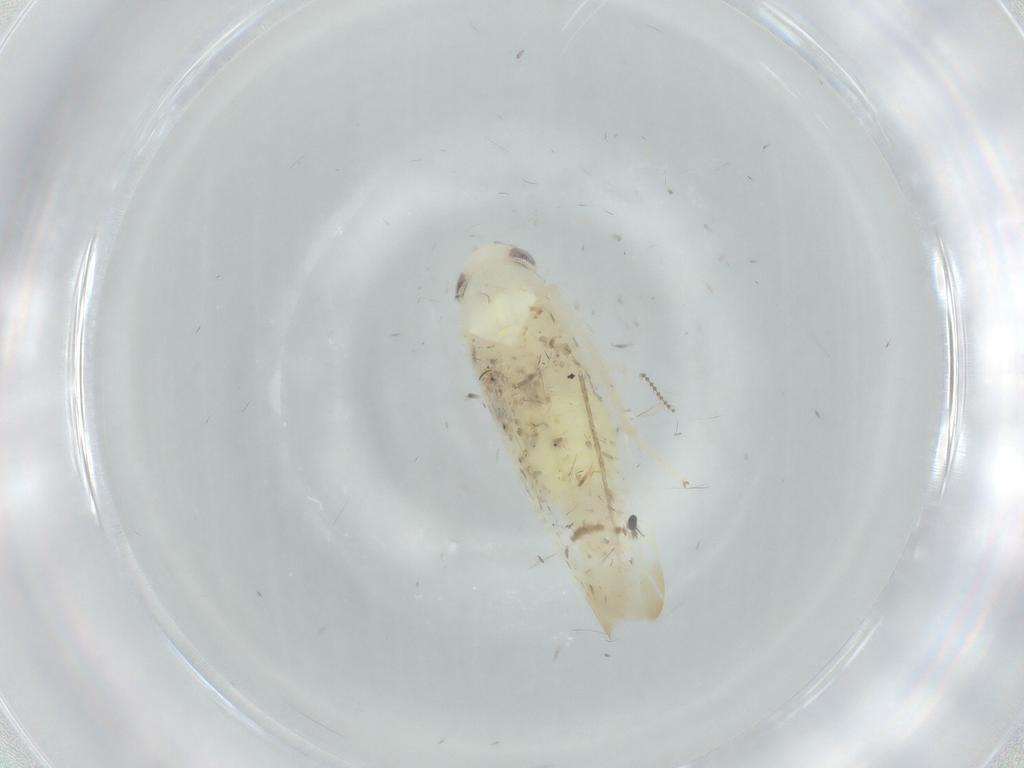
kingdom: Animalia
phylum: Arthropoda
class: Insecta
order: Hemiptera
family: Cicadellidae
